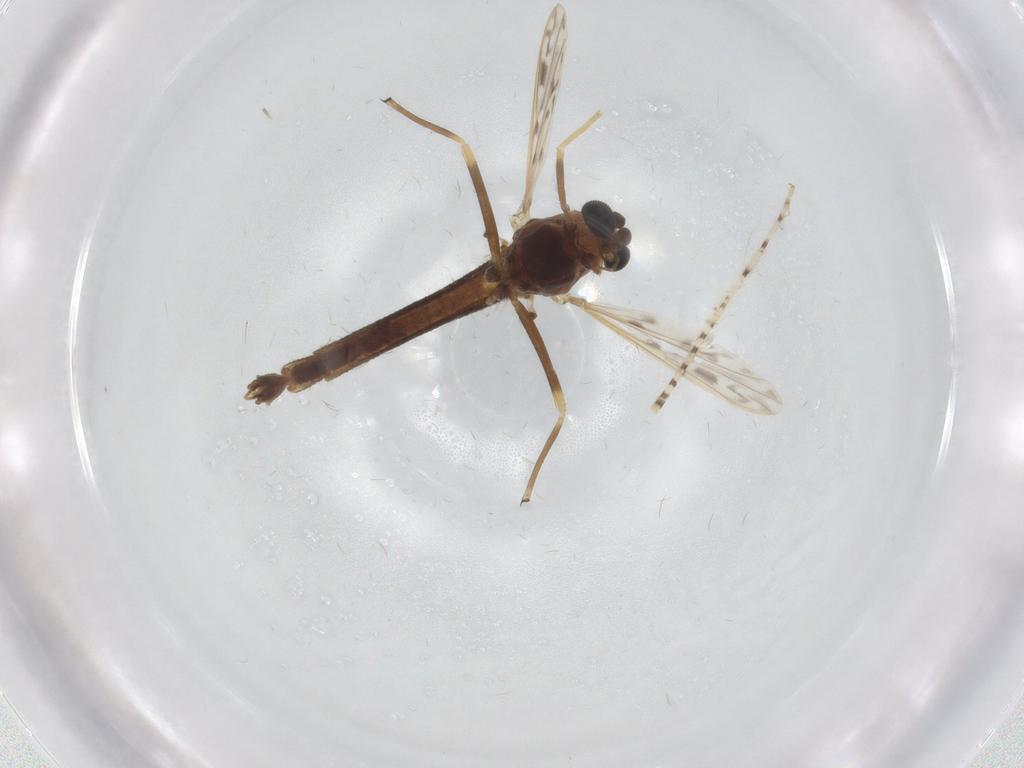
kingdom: Animalia
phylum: Arthropoda
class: Insecta
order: Diptera
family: Chironomidae
